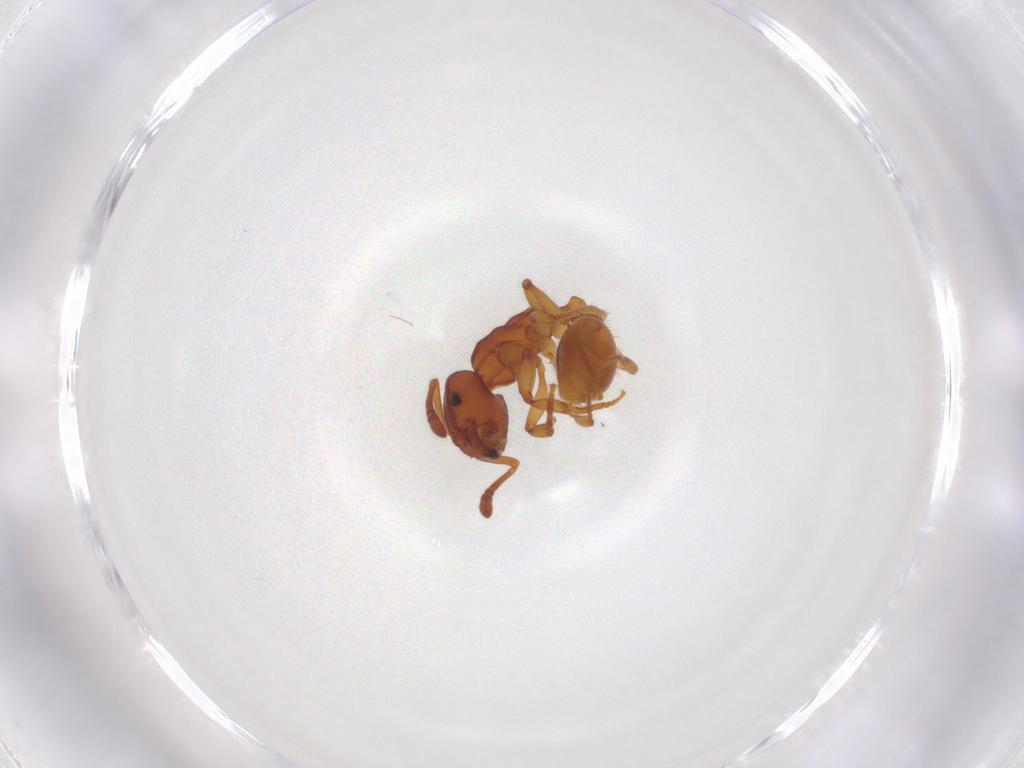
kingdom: Animalia
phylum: Arthropoda
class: Insecta
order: Hymenoptera
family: Formicidae
